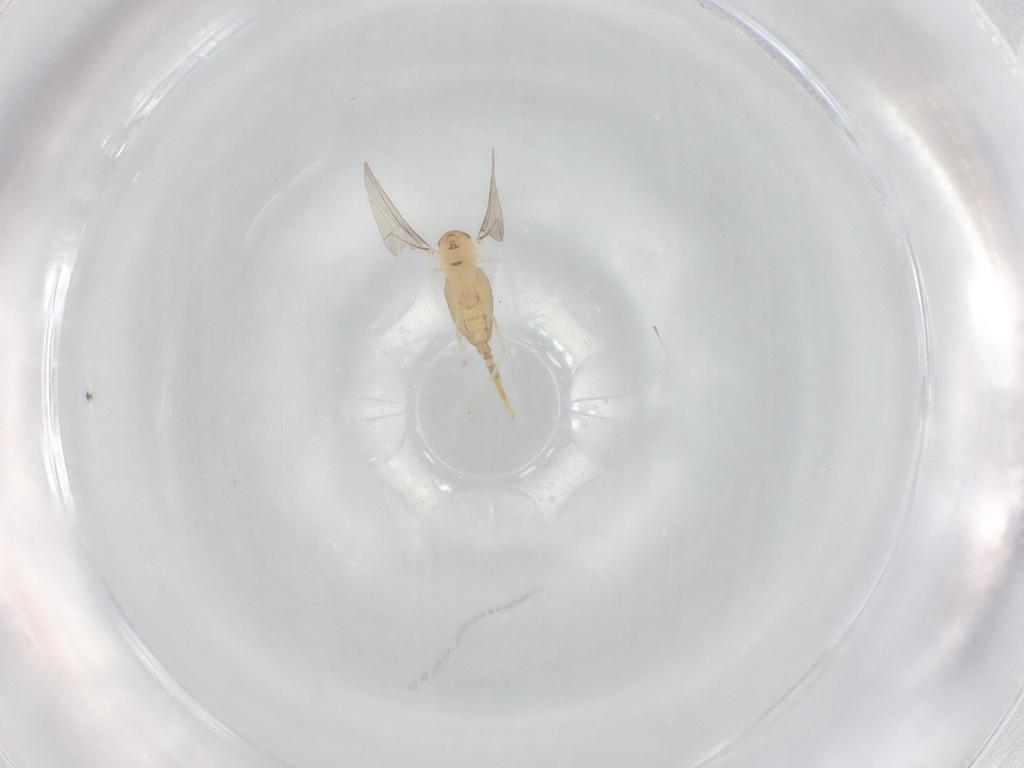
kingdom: Animalia
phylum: Arthropoda
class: Insecta
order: Diptera
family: Cecidomyiidae
